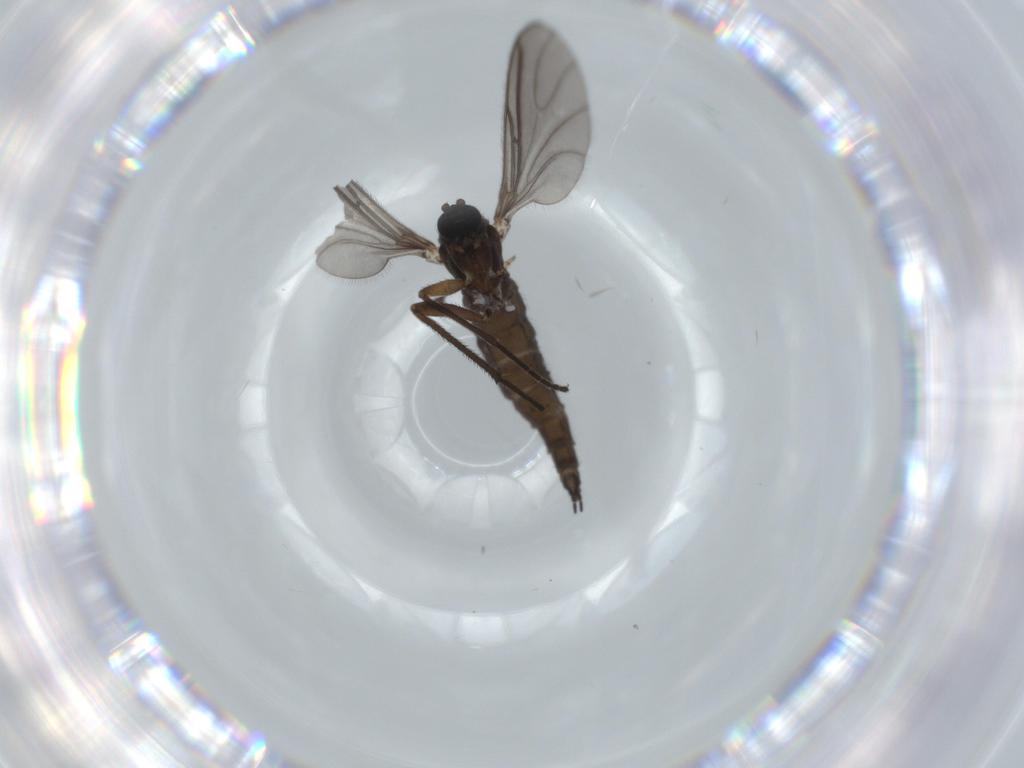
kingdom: Animalia
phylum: Arthropoda
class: Insecta
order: Diptera
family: Sciaridae
